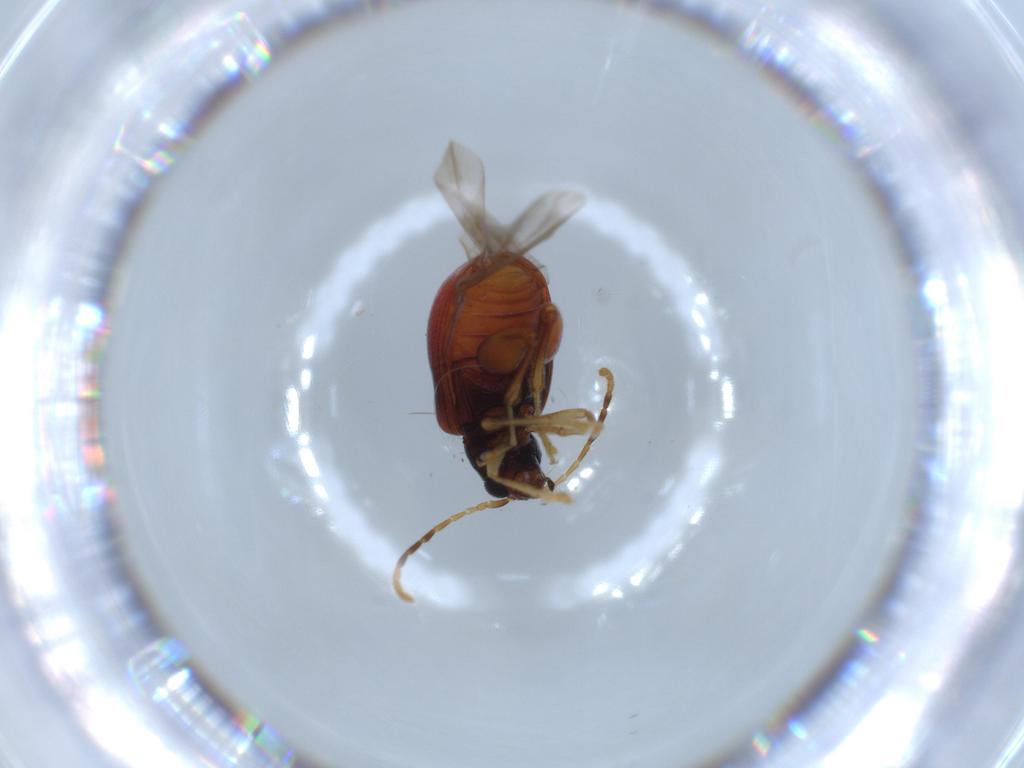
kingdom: Animalia
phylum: Arthropoda
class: Insecta
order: Coleoptera
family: Chrysomelidae
